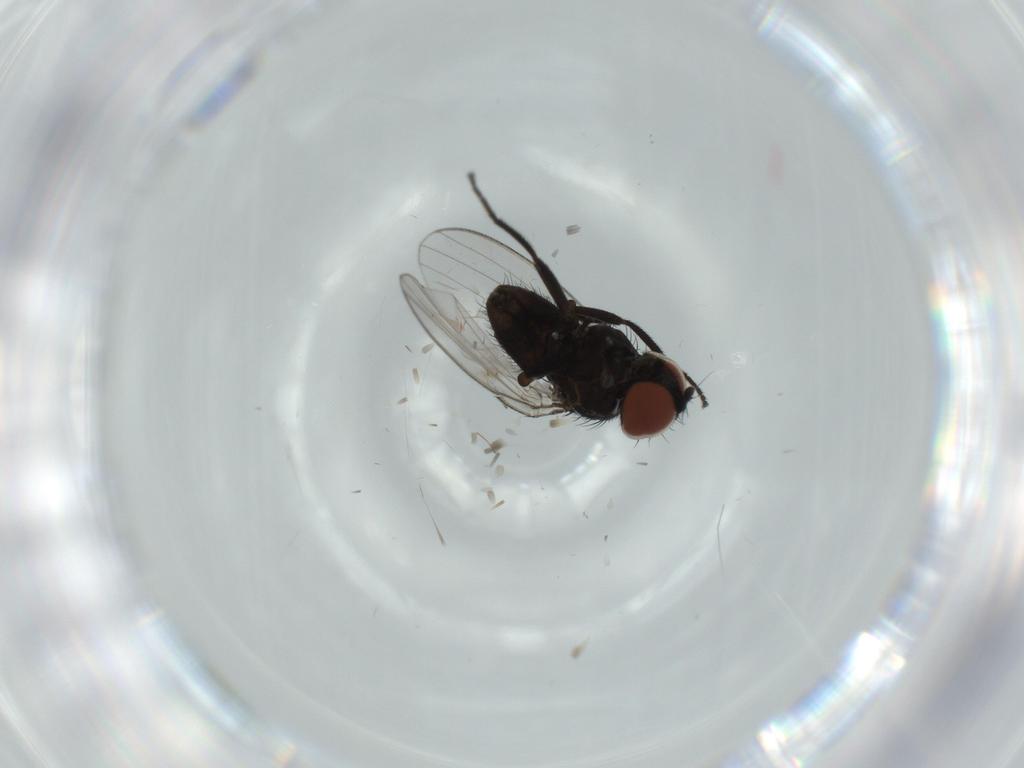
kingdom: Animalia
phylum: Arthropoda
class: Insecta
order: Diptera
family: Milichiidae
